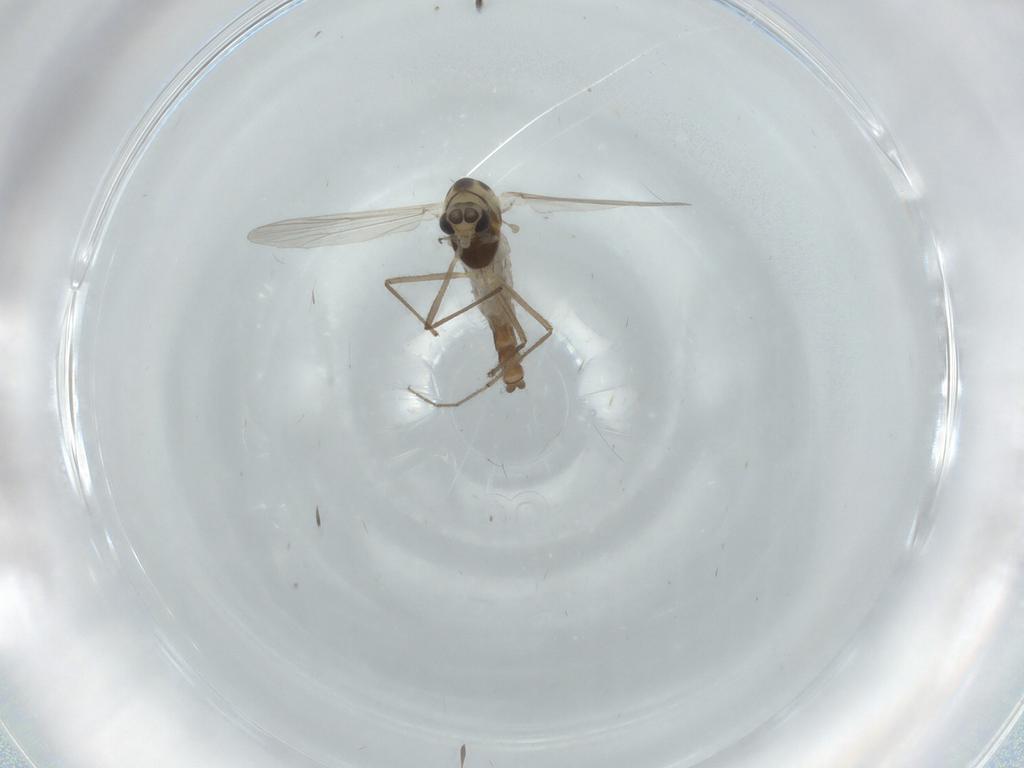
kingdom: Animalia
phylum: Arthropoda
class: Insecta
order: Diptera
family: Chironomidae
